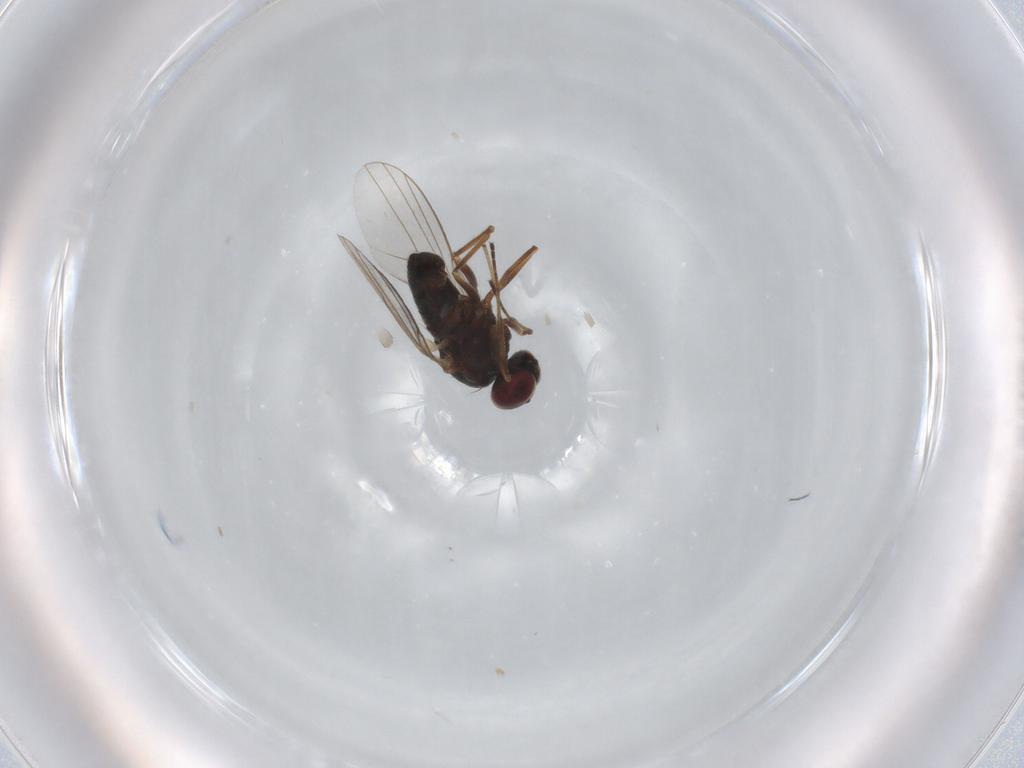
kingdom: Animalia
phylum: Arthropoda
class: Insecta
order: Diptera
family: Dolichopodidae
